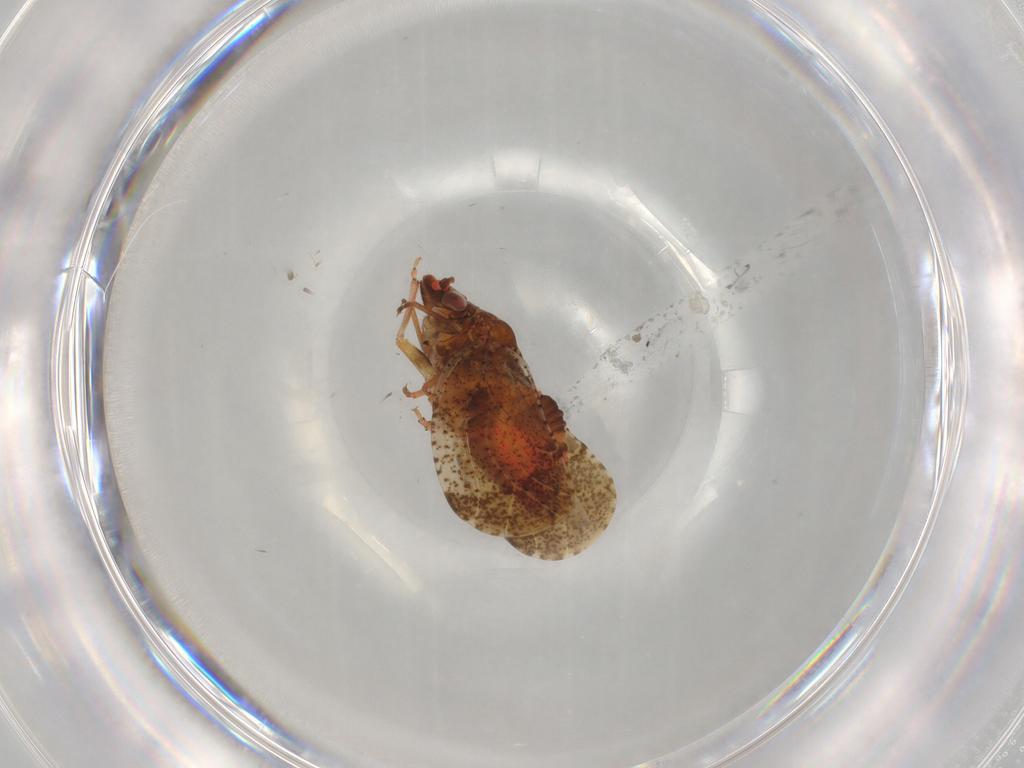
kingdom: Animalia
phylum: Arthropoda
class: Insecta
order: Hemiptera
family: Psyllidae
